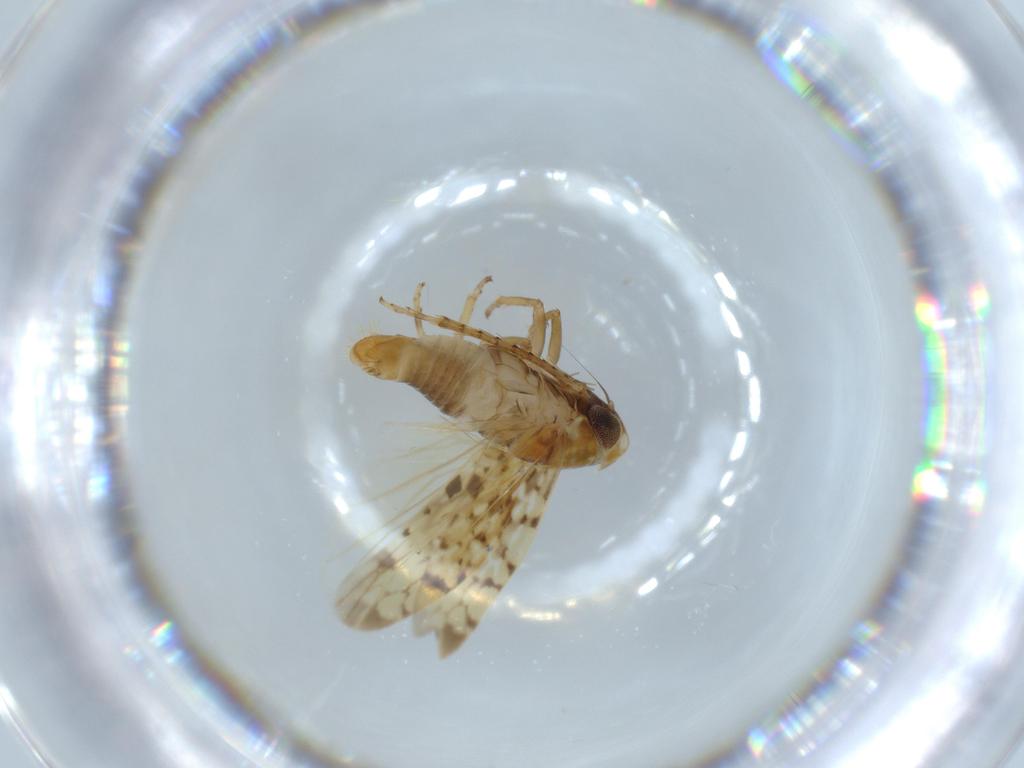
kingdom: Animalia
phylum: Arthropoda
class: Insecta
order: Hemiptera
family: Cicadellidae
